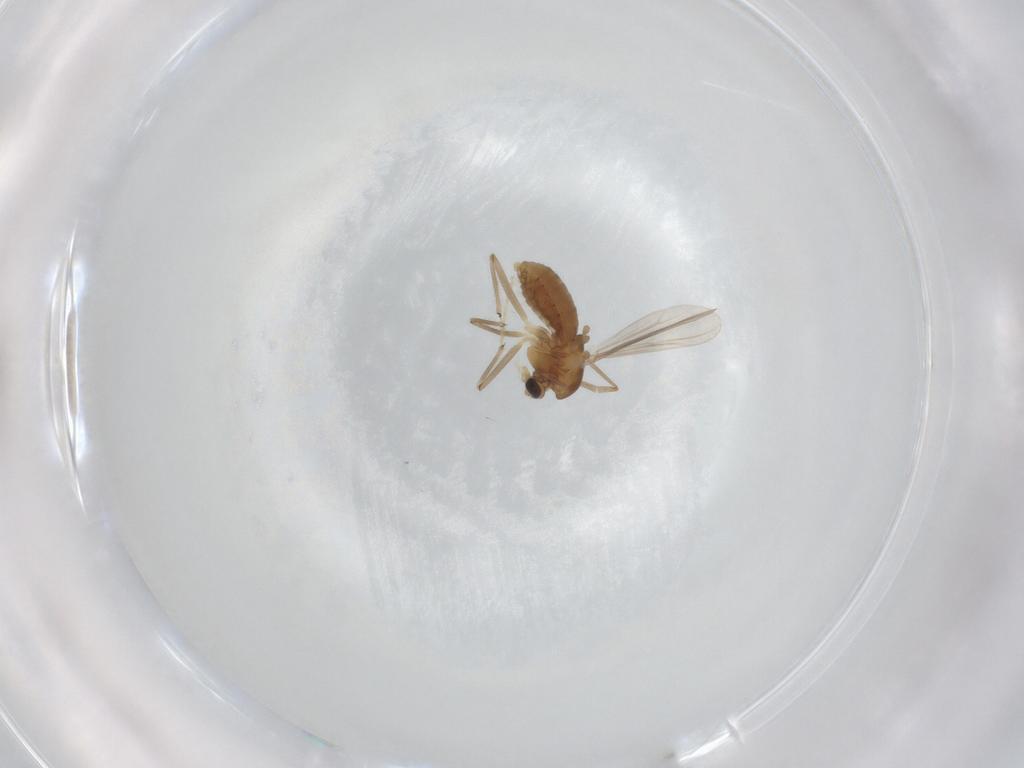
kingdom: Animalia
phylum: Arthropoda
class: Insecta
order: Diptera
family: Chironomidae
